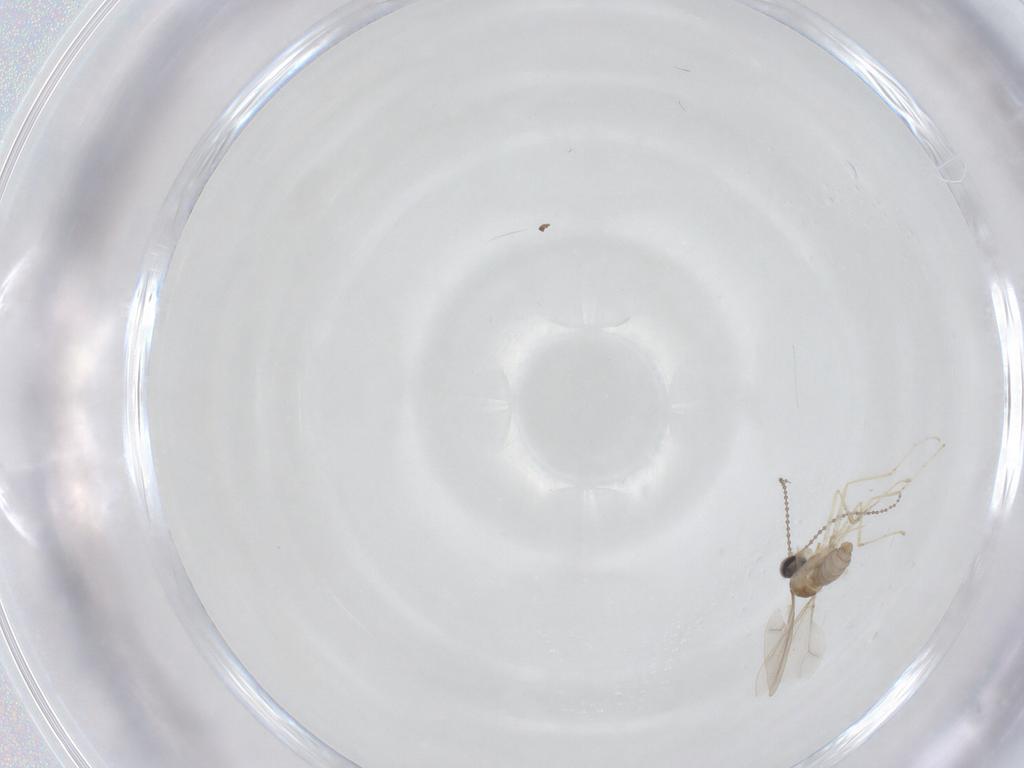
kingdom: Animalia
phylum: Arthropoda
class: Insecta
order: Diptera
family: Cecidomyiidae
